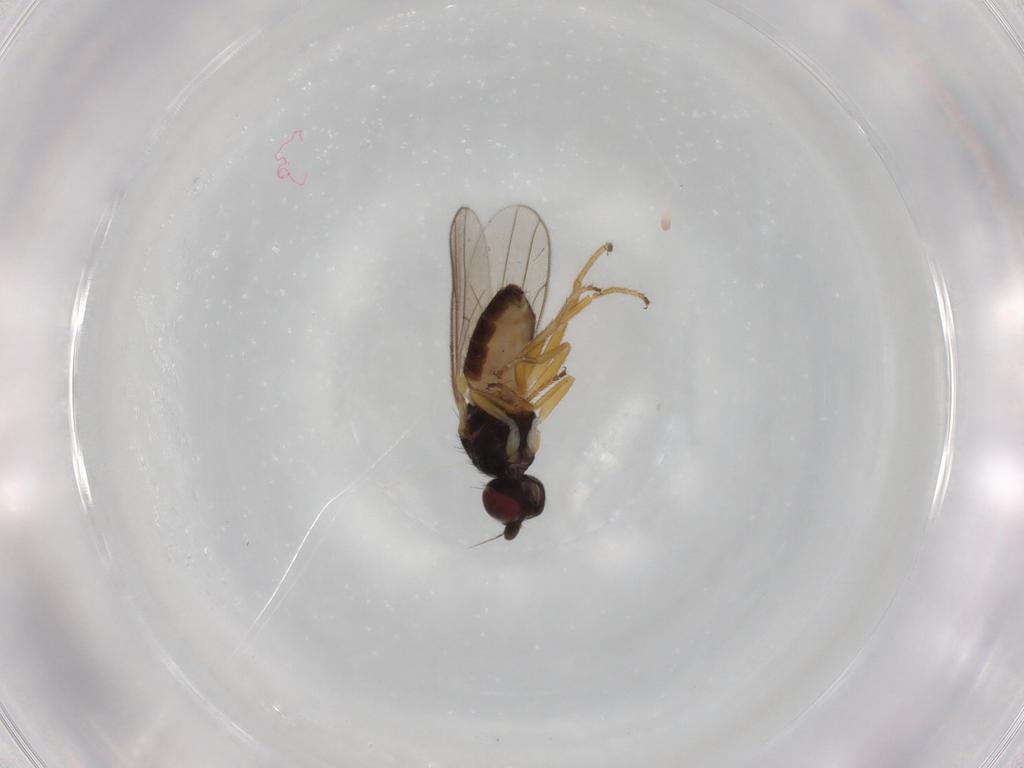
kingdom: Animalia
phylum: Arthropoda
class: Insecta
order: Diptera
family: Chloropidae
